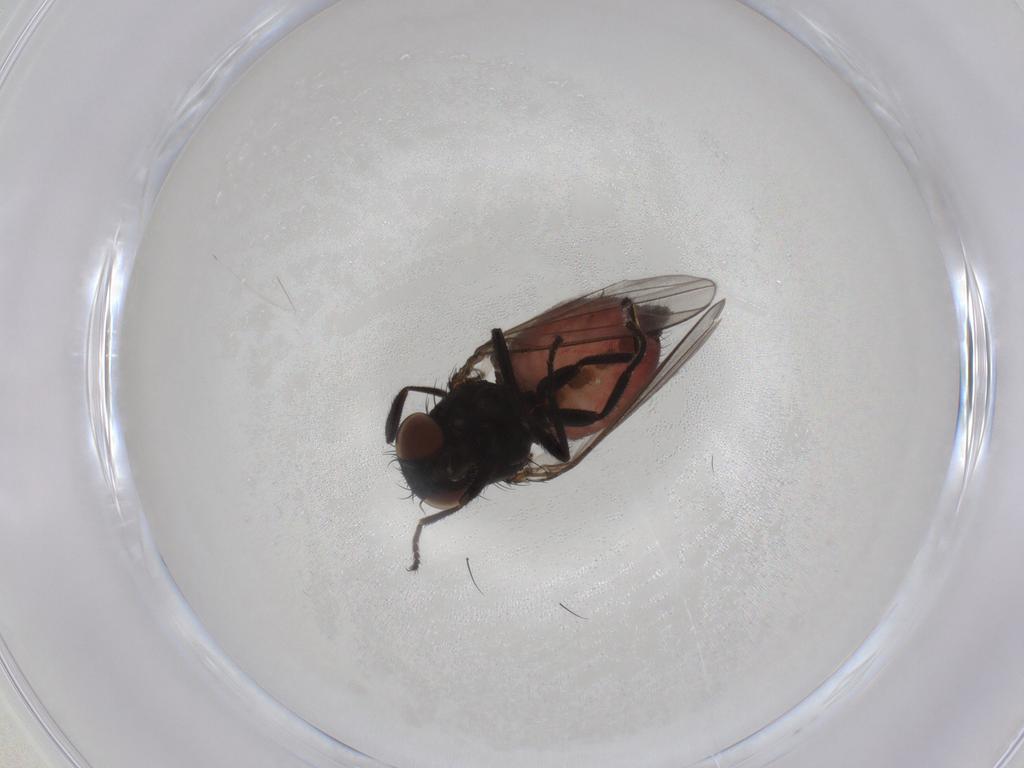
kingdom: Animalia
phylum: Arthropoda
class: Insecta
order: Diptera
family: Milichiidae
